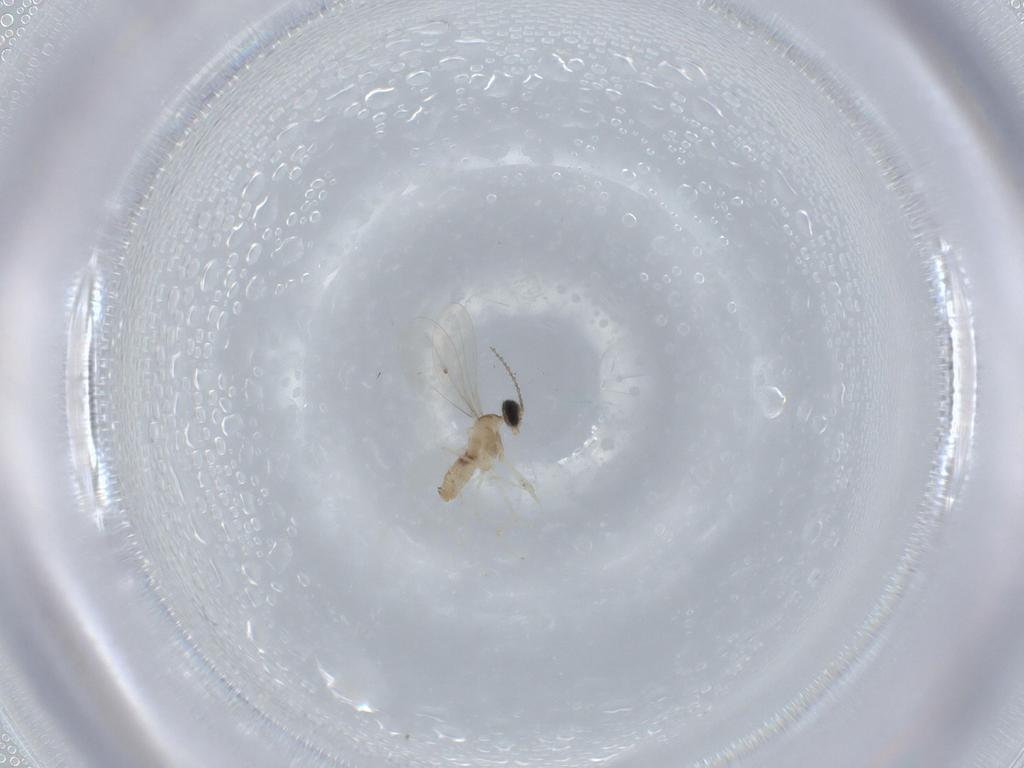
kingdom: Animalia
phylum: Arthropoda
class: Insecta
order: Diptera
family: Cecidomyiidae
